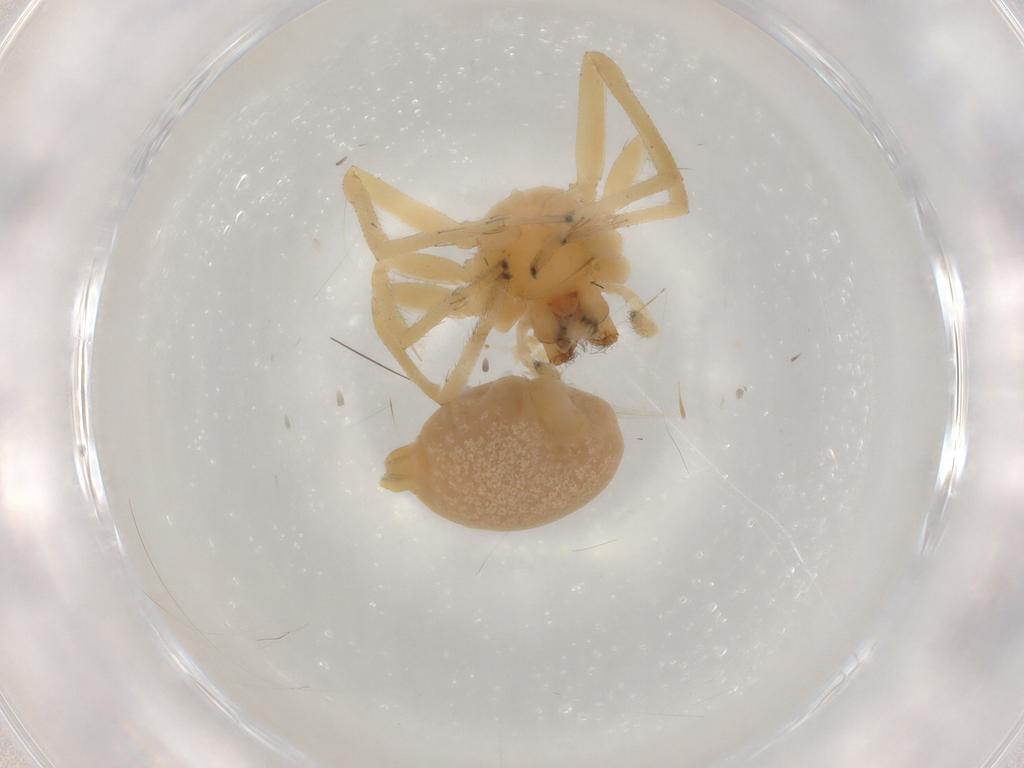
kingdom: Animalia
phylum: Arthropoda
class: Arachnida
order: Araneae
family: Cheiracanthiidae
